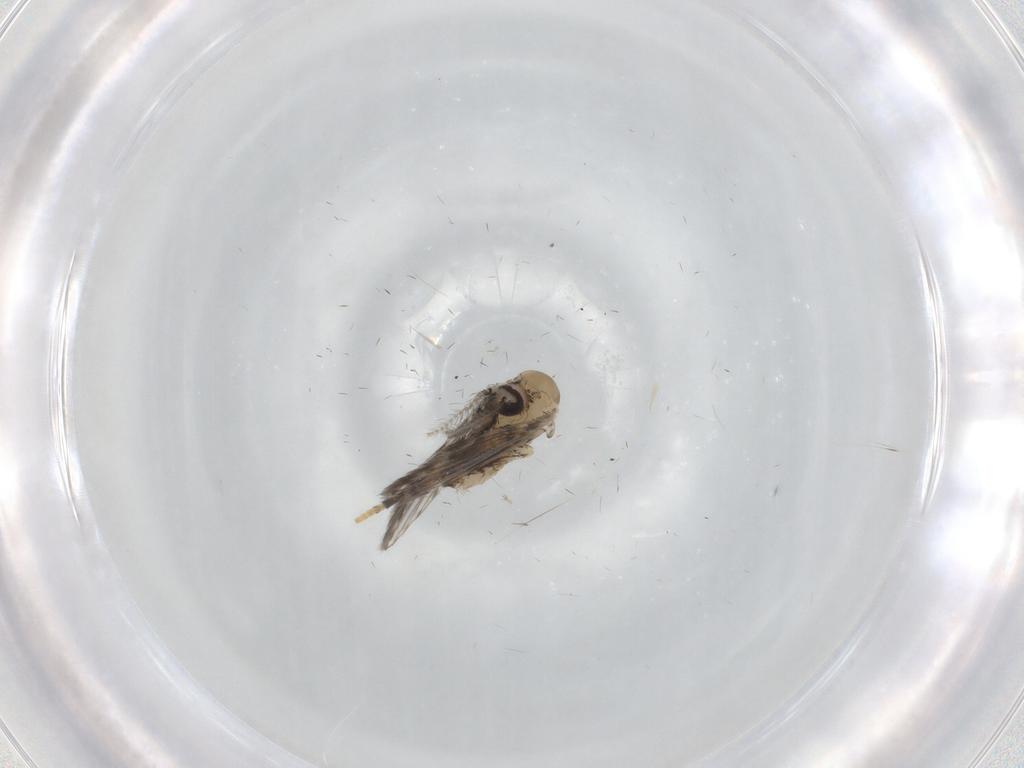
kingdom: Animalia
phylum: Arthropoda
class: Insecta
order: Diptera
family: Psychodidae
